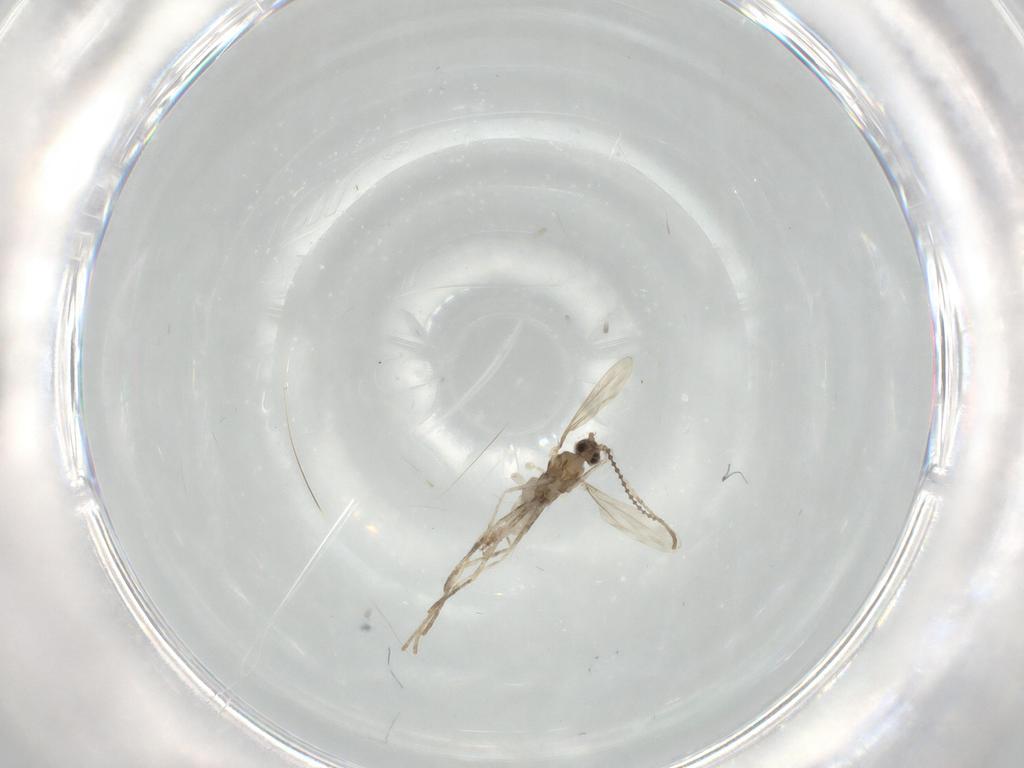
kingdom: Animalia
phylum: Arthropoda
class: Insecta
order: Diptera
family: Cecidomyiidae
